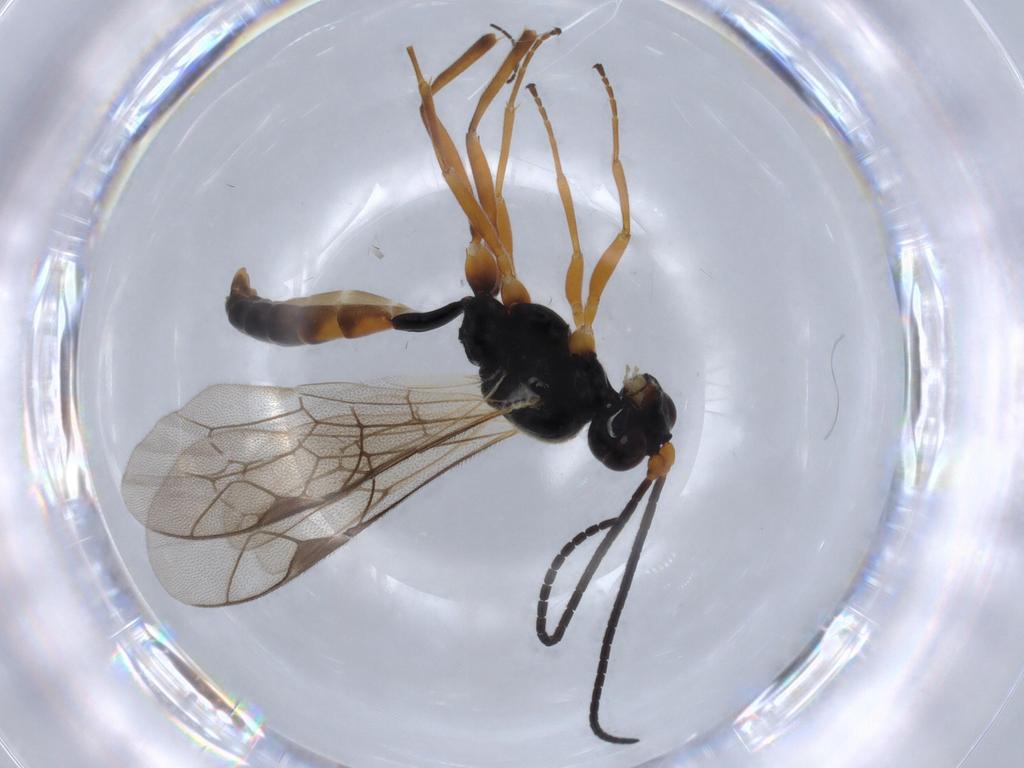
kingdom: Animalia
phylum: Arthropoda
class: Insecta
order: Hymenoptera
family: Ichneumonidae
